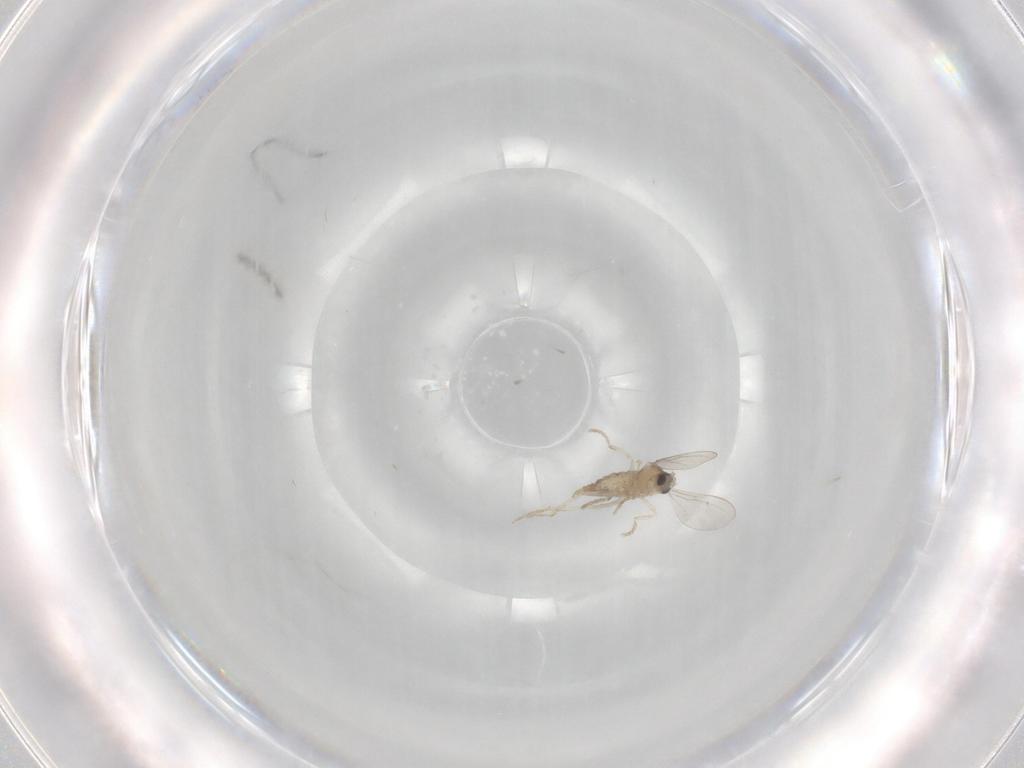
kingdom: Animalia
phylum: Arthropoda
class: Insecta
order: Diptera
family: Cecidomyiidae
